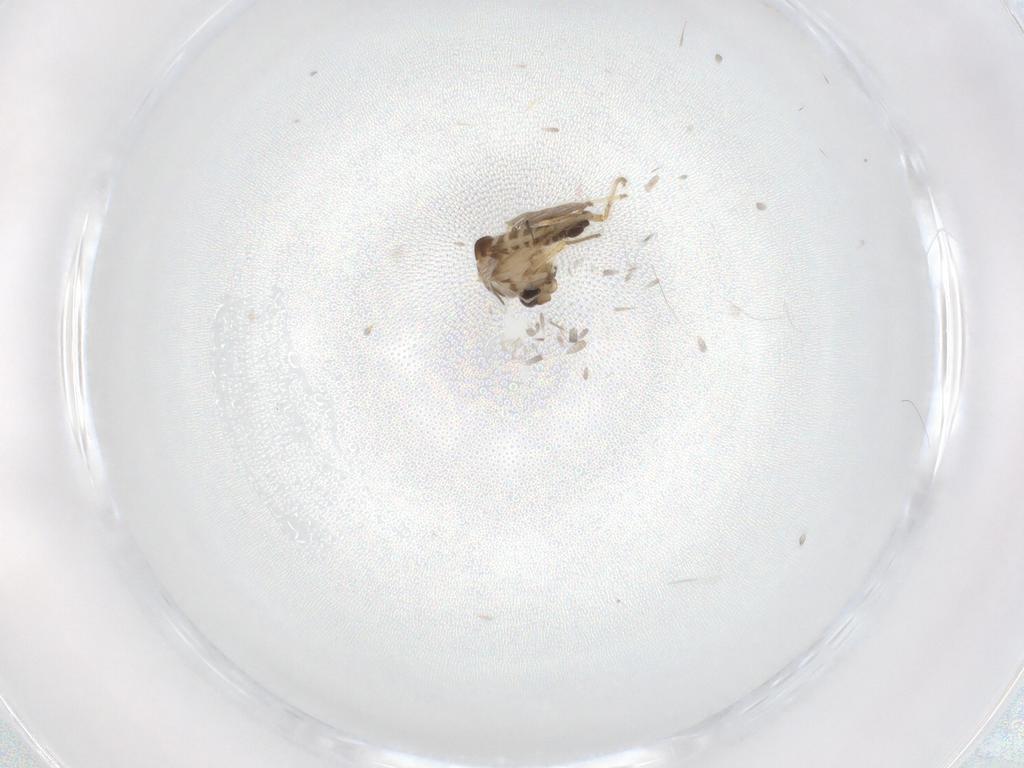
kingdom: Animalia
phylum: Arthropoda
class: Insecta
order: Diptera
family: Ceratopogonidae
